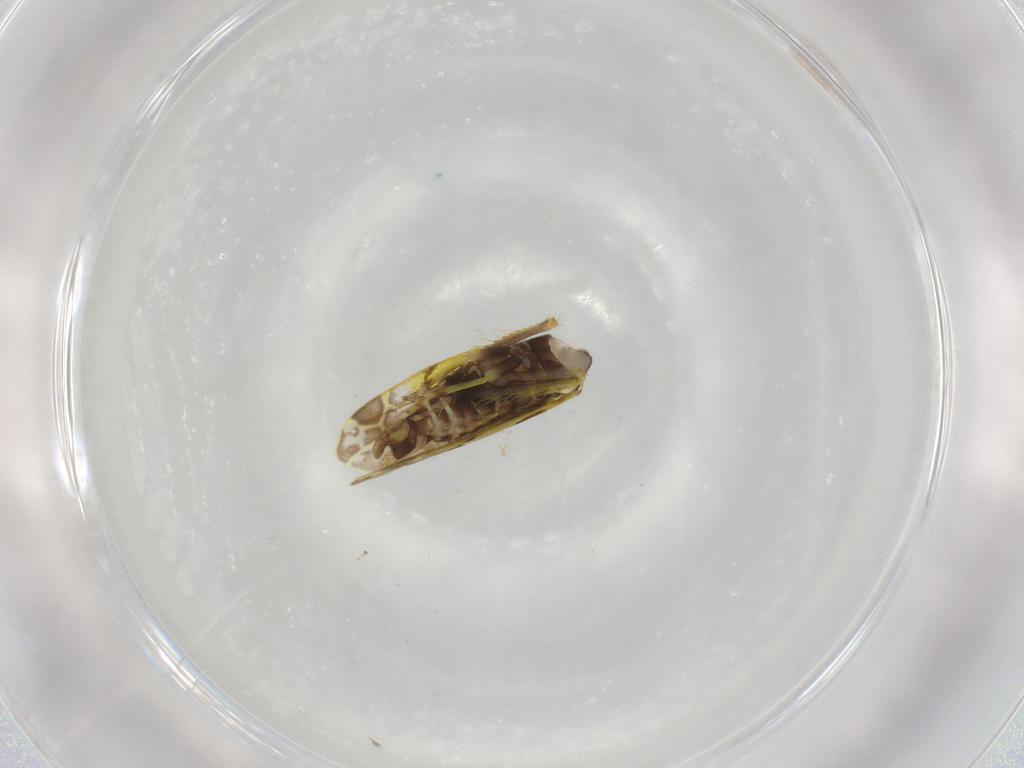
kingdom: Animalia
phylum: Arthropoda
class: Insecta
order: Hemiptera
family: Cicadellidae
